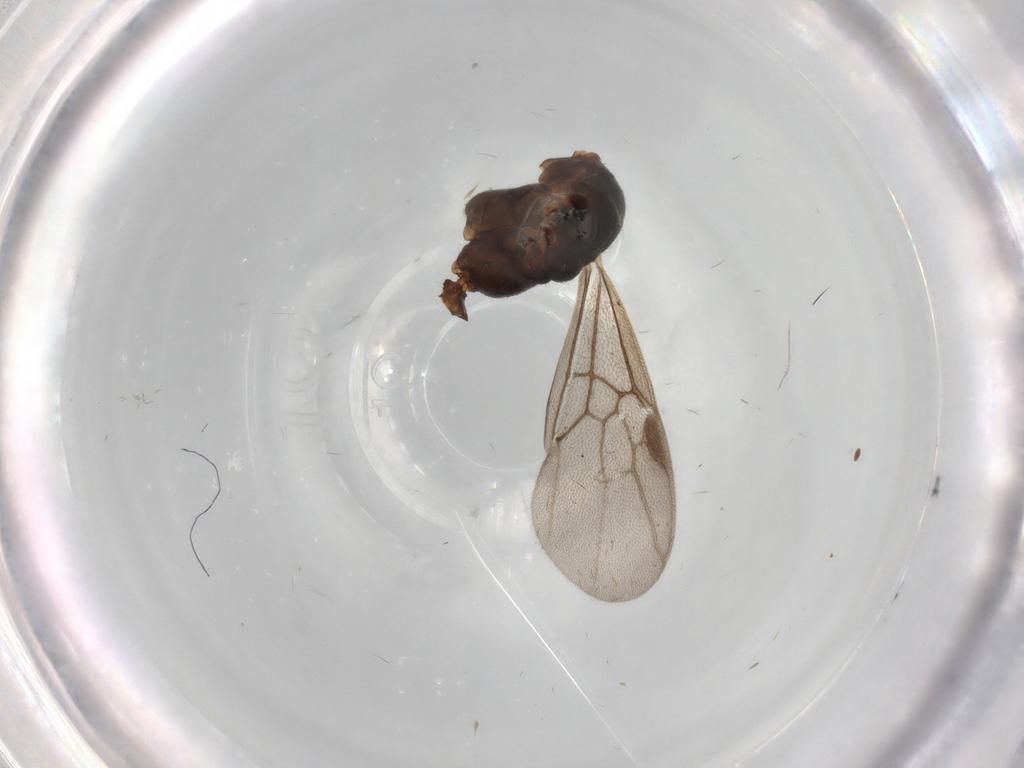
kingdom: Animalia
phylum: Arthropoda
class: Insecta
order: Hymenoptera
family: Formicidae
